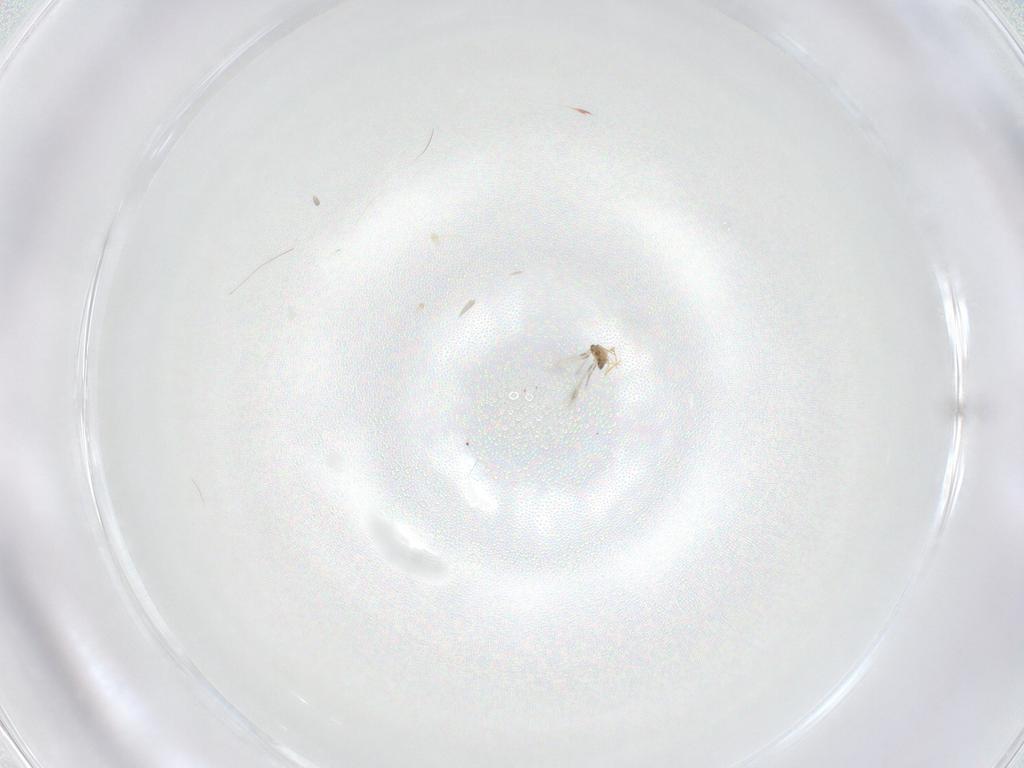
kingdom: Animalia
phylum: Arthropoda
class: Insecta
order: Hymenoptera
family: Mymaridae
